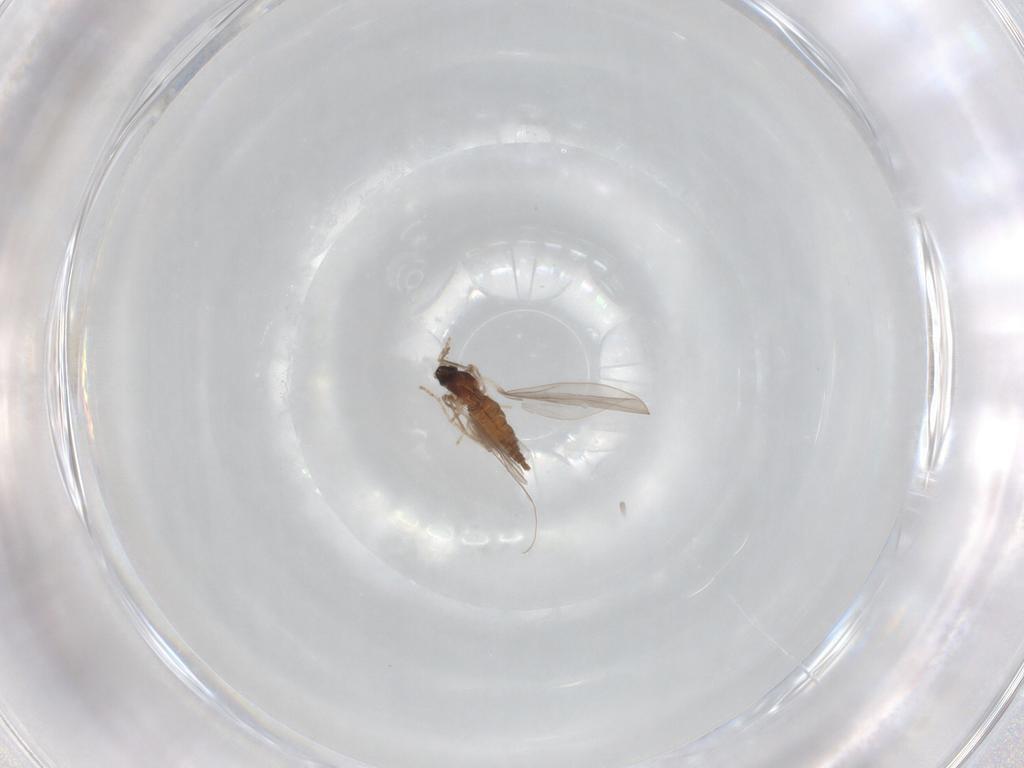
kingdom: Animalia
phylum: Arthropoda
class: Insecta
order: Diptera
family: Cecidomyiidae
